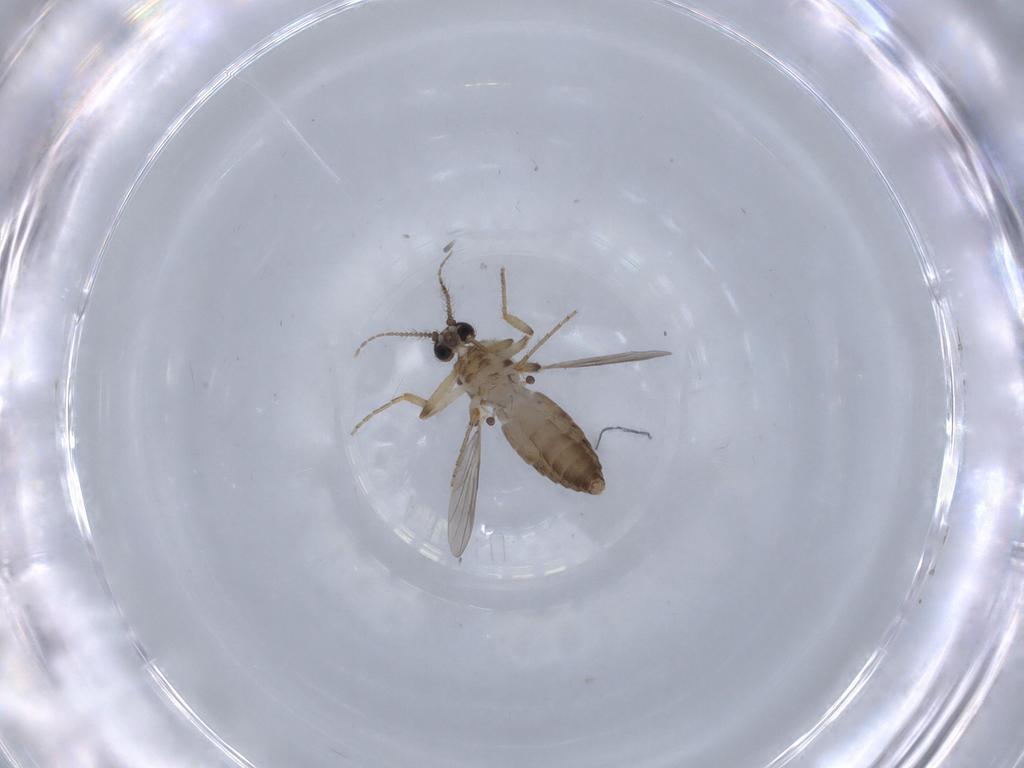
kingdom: Animalia
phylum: Arthropoda
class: Insecta
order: Diptera
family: Ceratopogonidae
